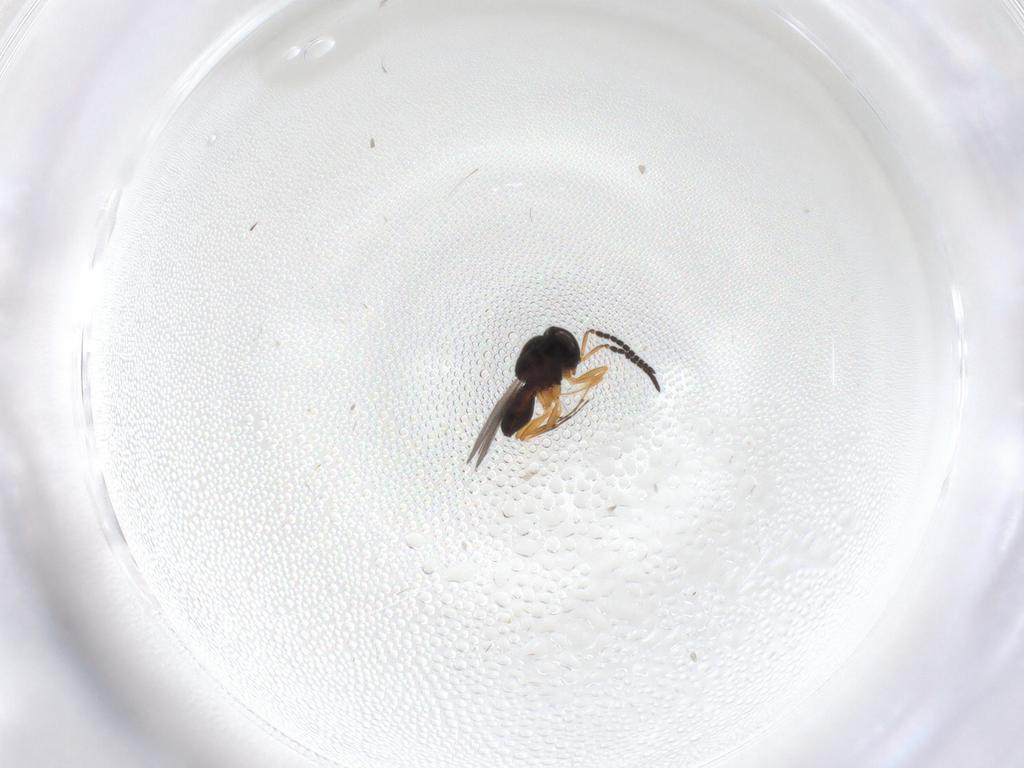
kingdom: Animalia
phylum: Arthropoda
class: Insecta
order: Hymenoptera
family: Scelionidae
